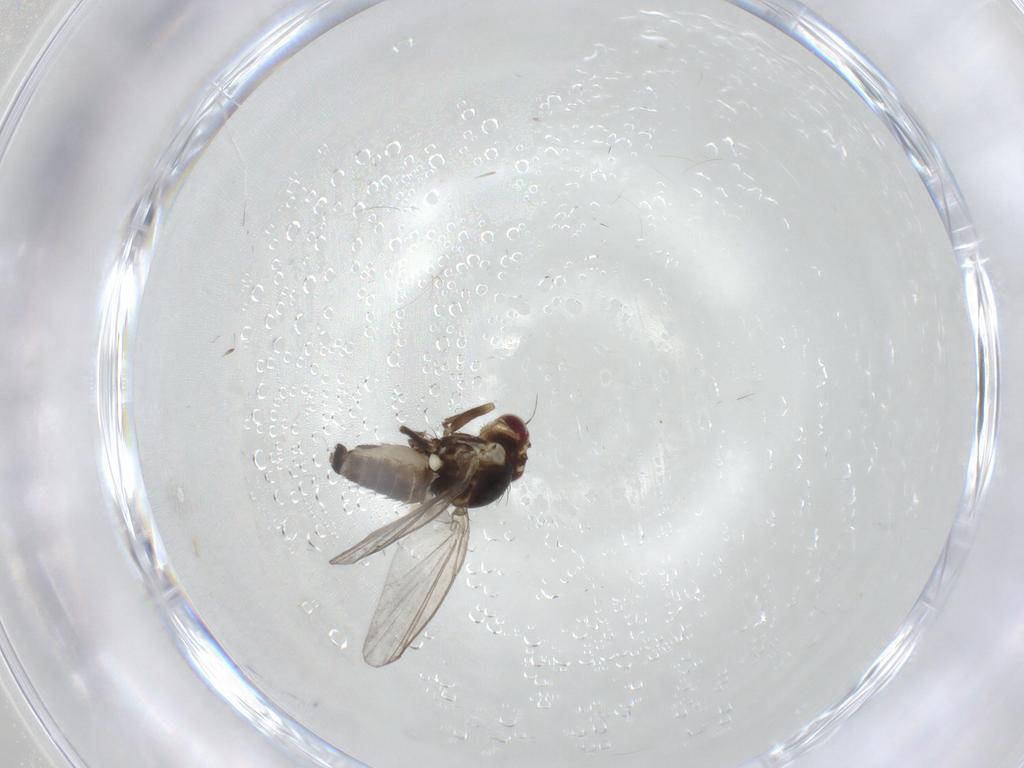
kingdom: Animalia
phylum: Arthropoda
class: Insecta
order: Diptera
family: Agromyzidae
